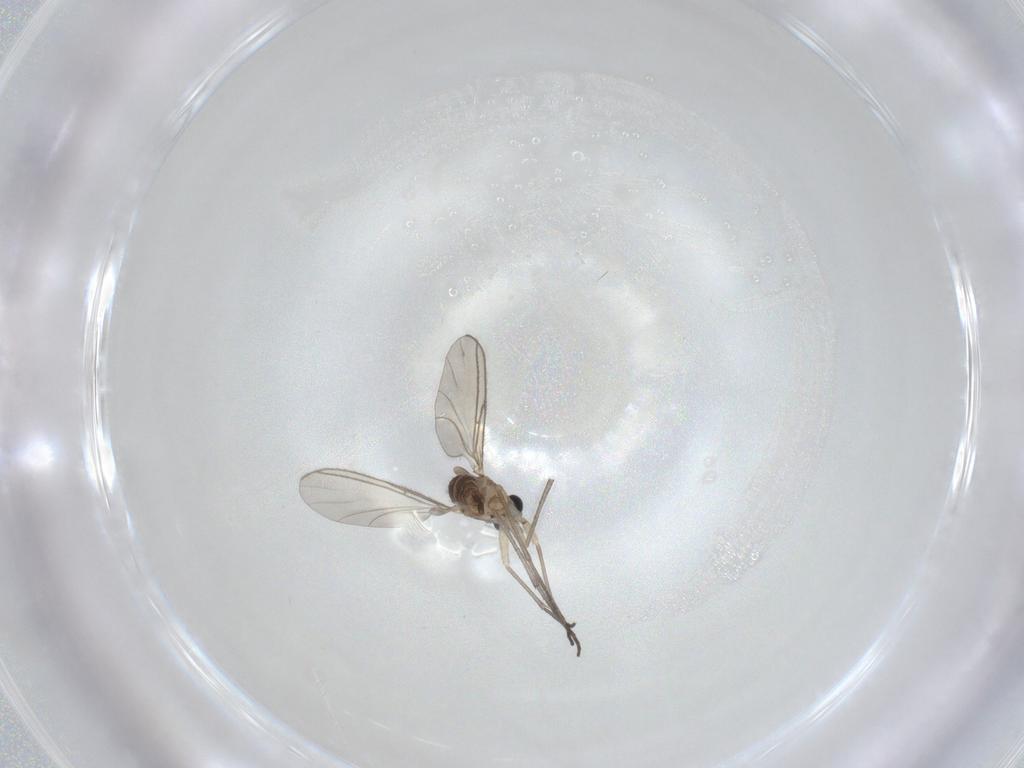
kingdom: Animalia
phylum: Arthropoda
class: Insecta
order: Diptera
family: Sciaridae
